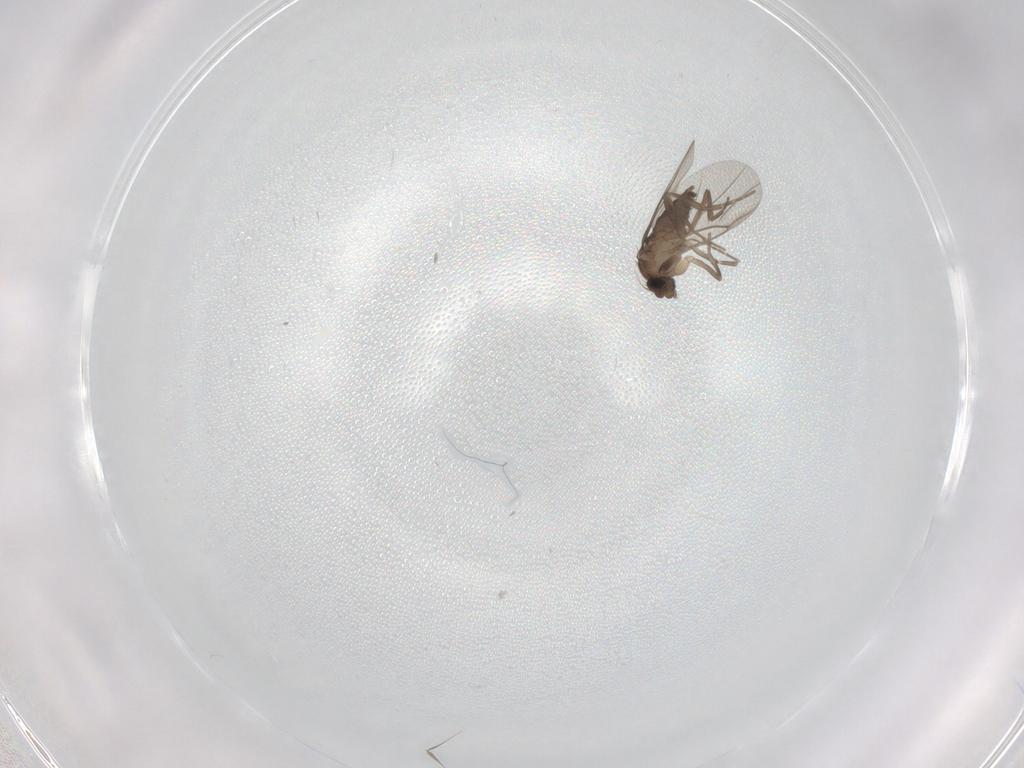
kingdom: Animalia
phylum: Arthropoda
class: Insecta
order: Diptera
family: Cecidomyiidae
